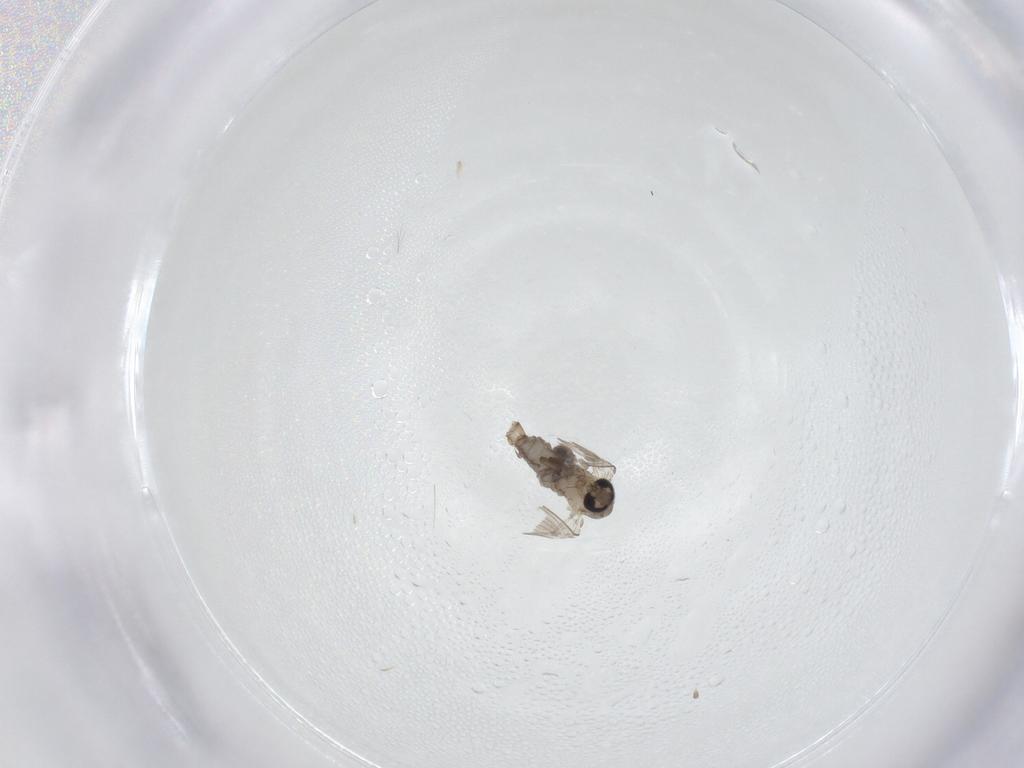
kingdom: Animalia
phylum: Arthropoda
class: Insecta
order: Diptera
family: Psychodidae
